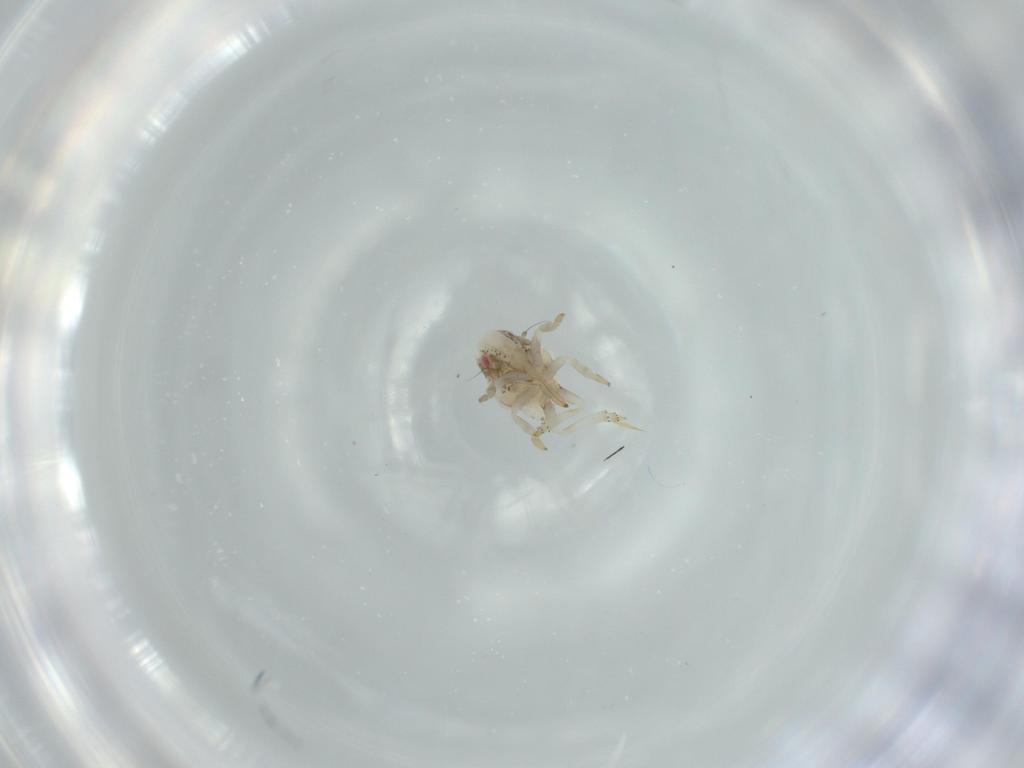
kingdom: Animalia
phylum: Arthropoda
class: Insecta
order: Hemiptera
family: Acanaloniidae
